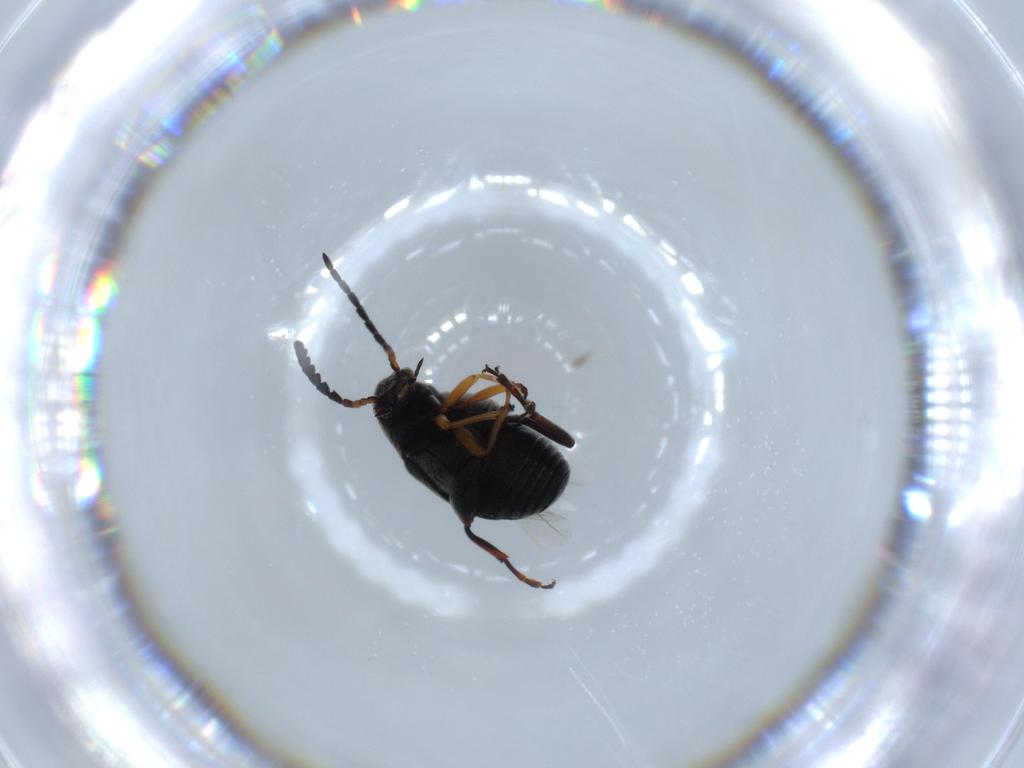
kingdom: Animalia
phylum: Arthropoda
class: Insecta
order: Coleoptera
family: Chrysomelidae
